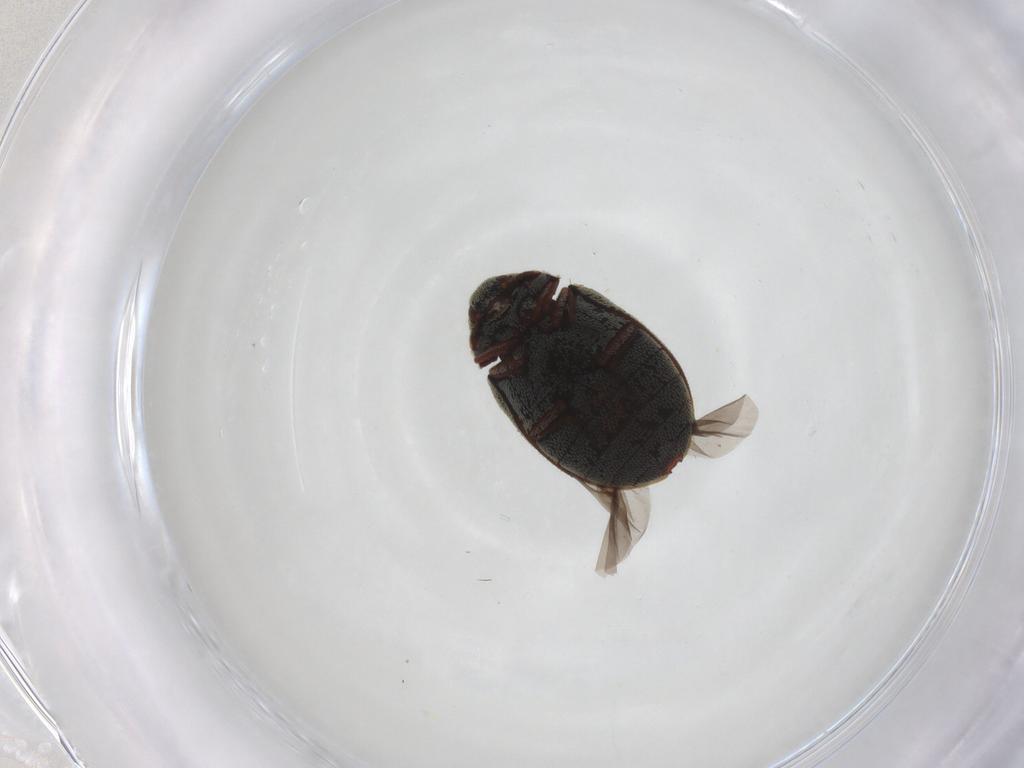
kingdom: Animalia
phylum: Arthropoda
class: Insecta
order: Coleoptera
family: Dermestidae
